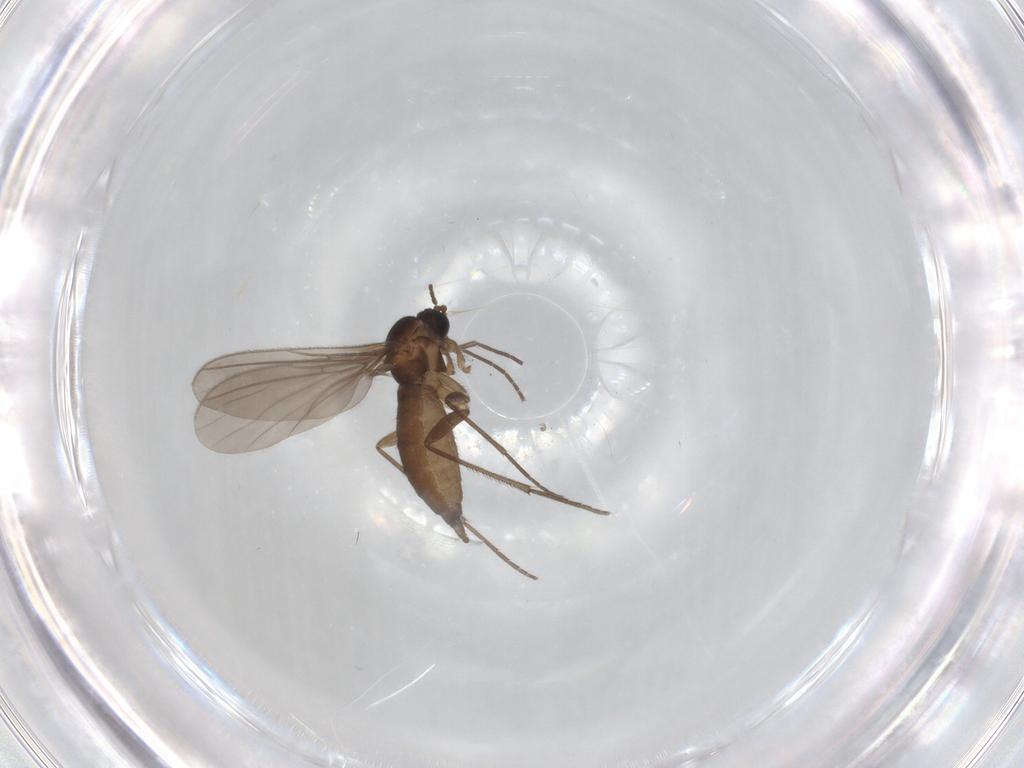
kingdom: Animalia
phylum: Arthropoda
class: Insecta
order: Diptera
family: Sciaridae
